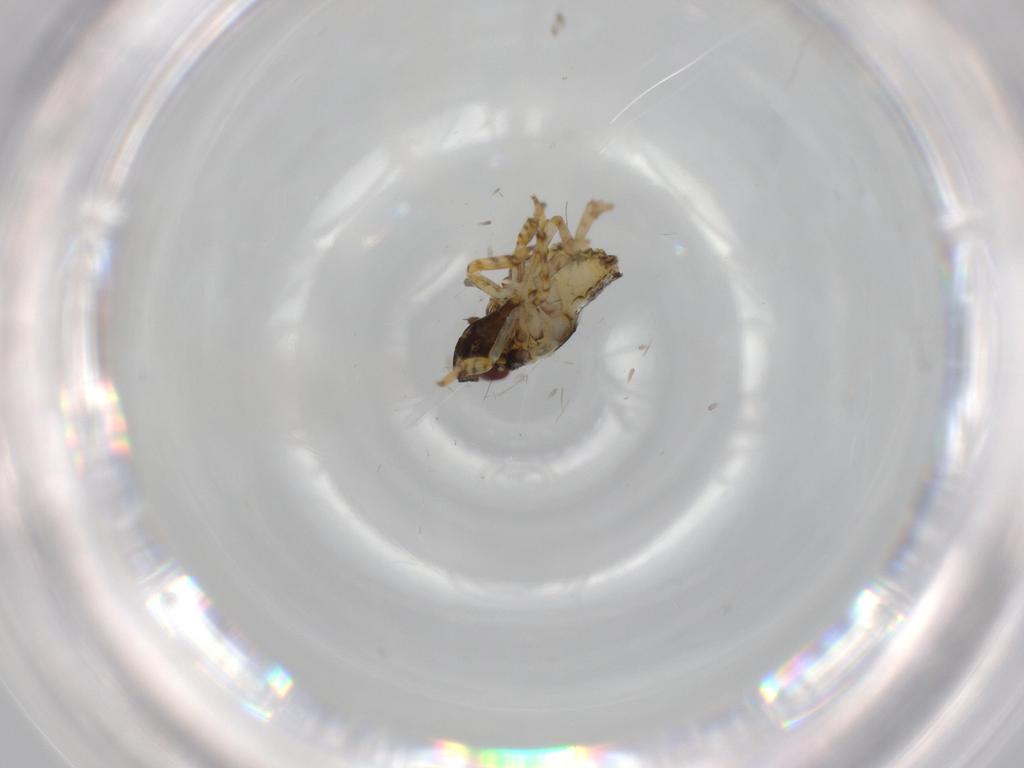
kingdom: Animalia
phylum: Arthropoda
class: Insecta
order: Hemiptera
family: Issidae
